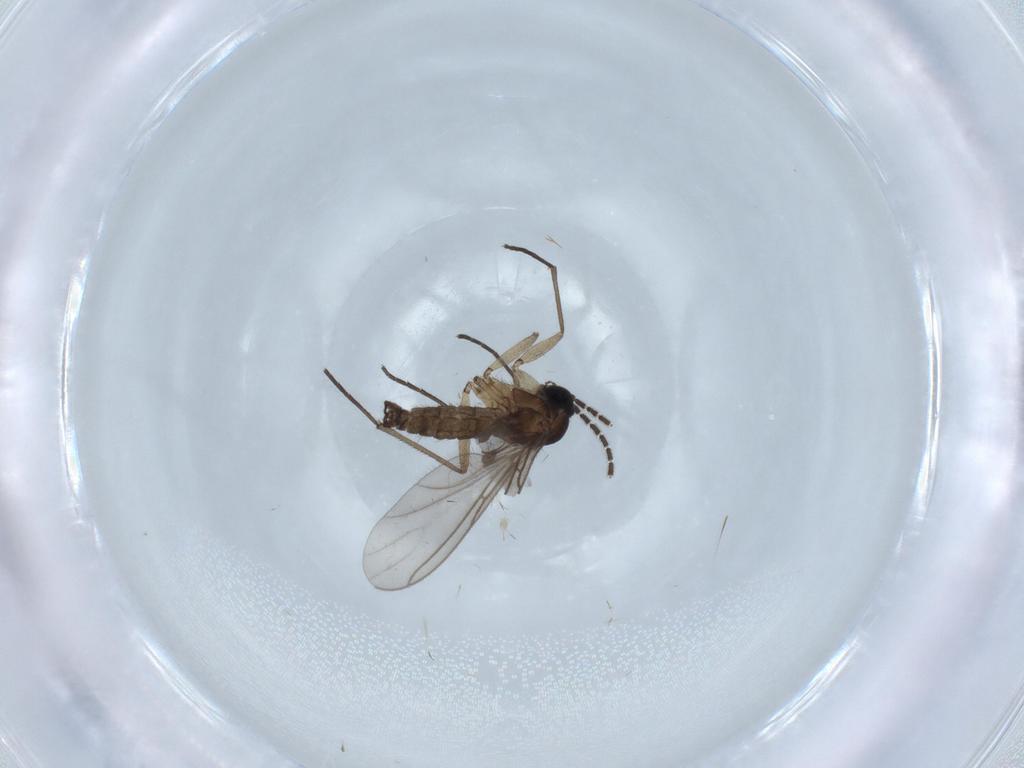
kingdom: Animalia
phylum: Arthropoda
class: Insecta
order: Diptera
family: Sciaridae
